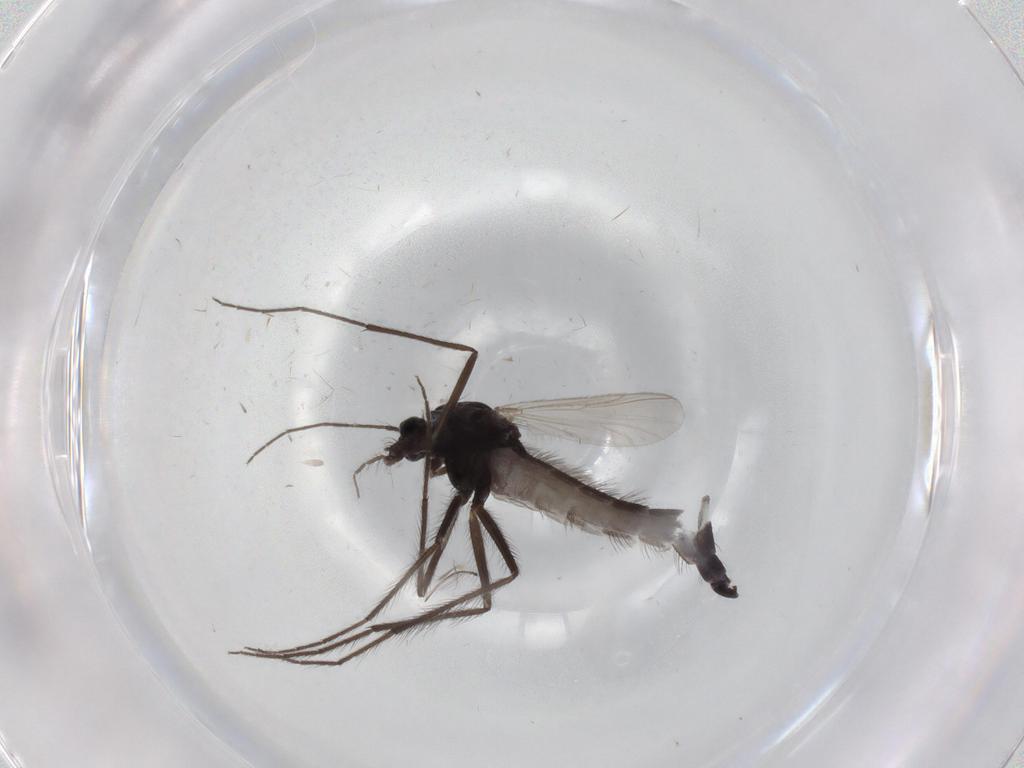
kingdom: Animalia
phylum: Arthropoda
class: Insecta
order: Diptera
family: Chironomidae
